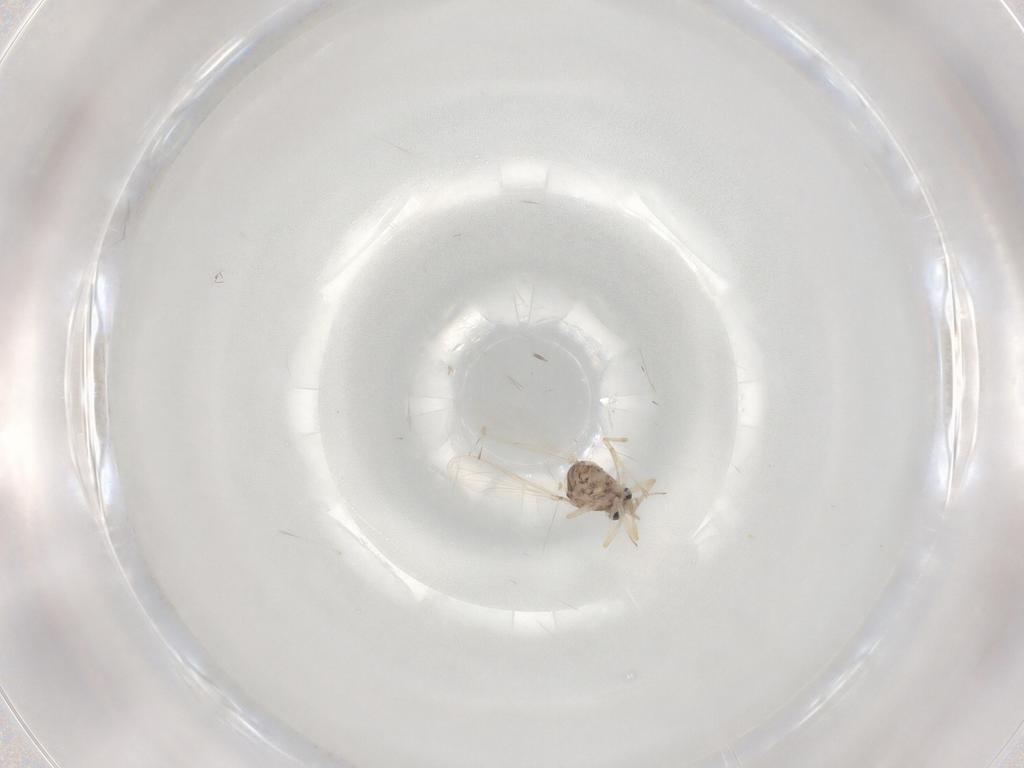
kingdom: Animalia
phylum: Arthropoda
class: Insecta
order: Diptera
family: Chironomidae
